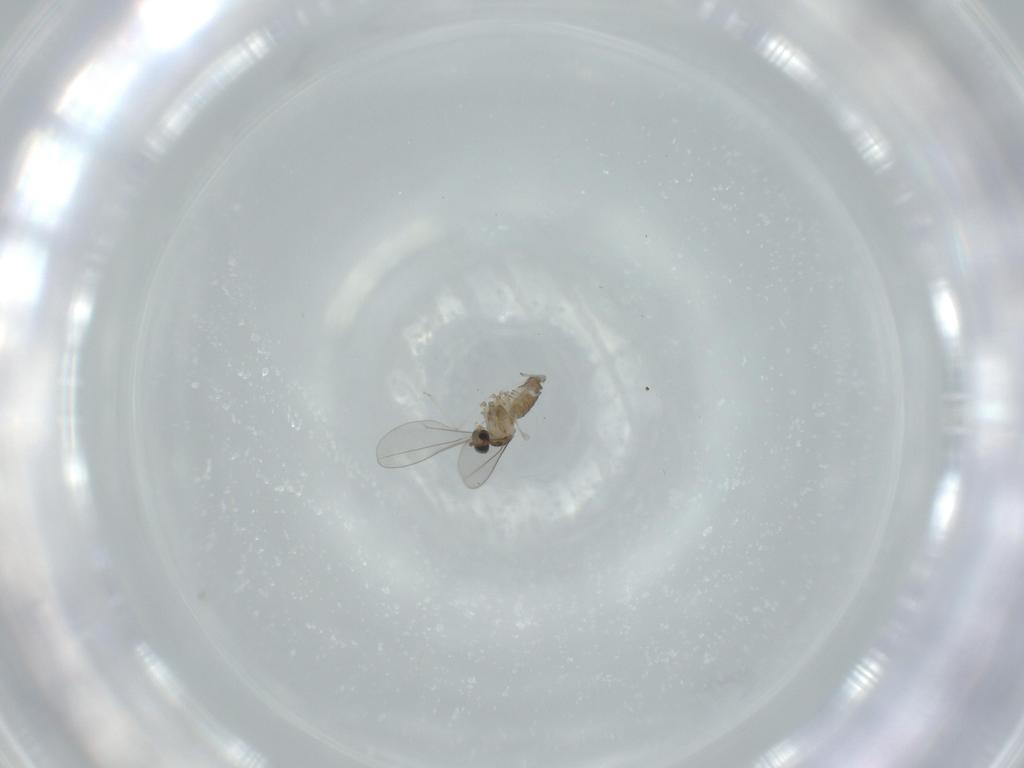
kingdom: Animalia
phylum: Arthropoda
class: Insecta
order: Diptera
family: Cecidomyiidae
